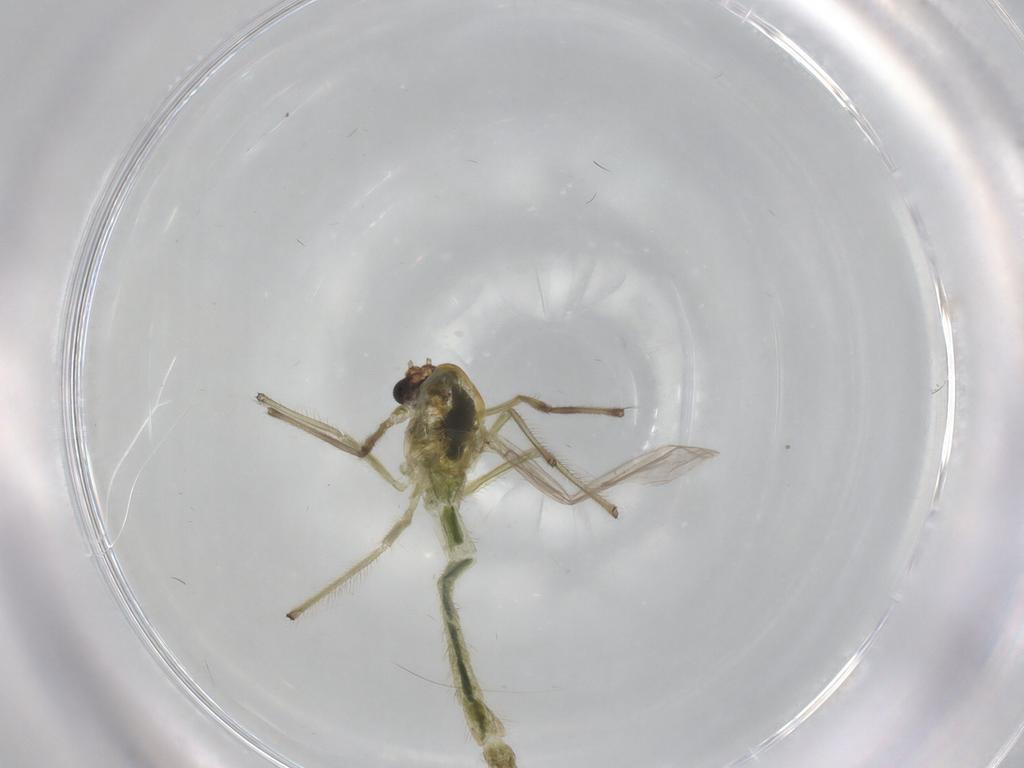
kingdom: Animalia
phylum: Arthropoda
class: Insecta
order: Diptera
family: Chironomidae
